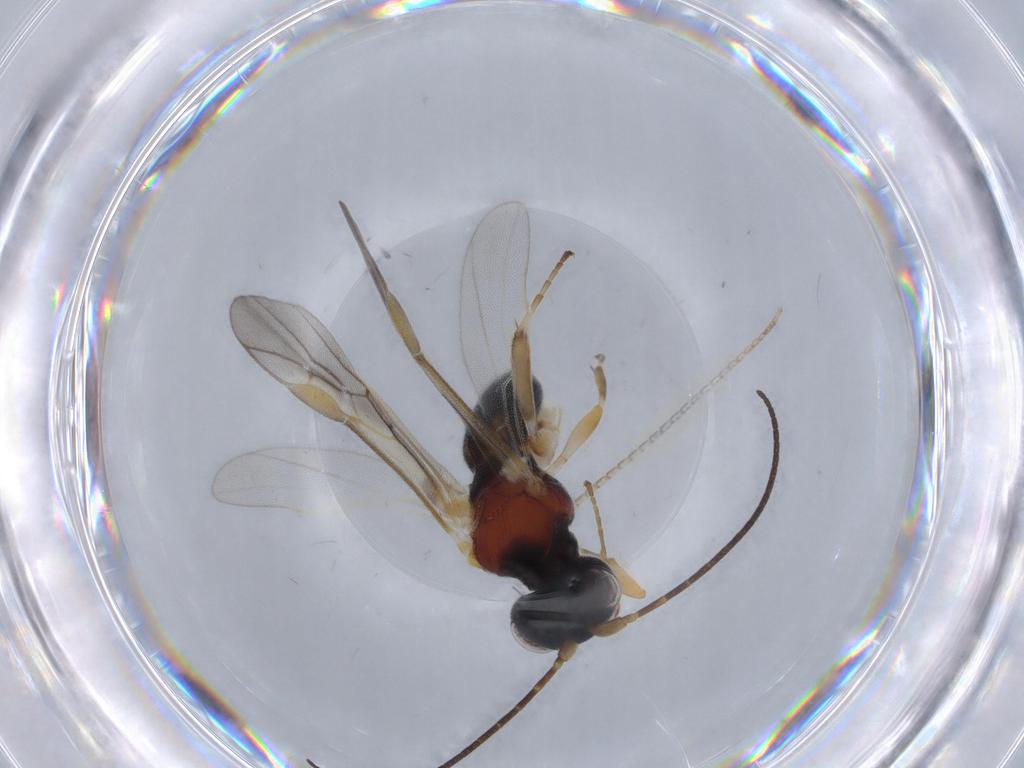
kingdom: Animalia
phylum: Arthropoda
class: Insecta
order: Hymenoptera
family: Braconidae
